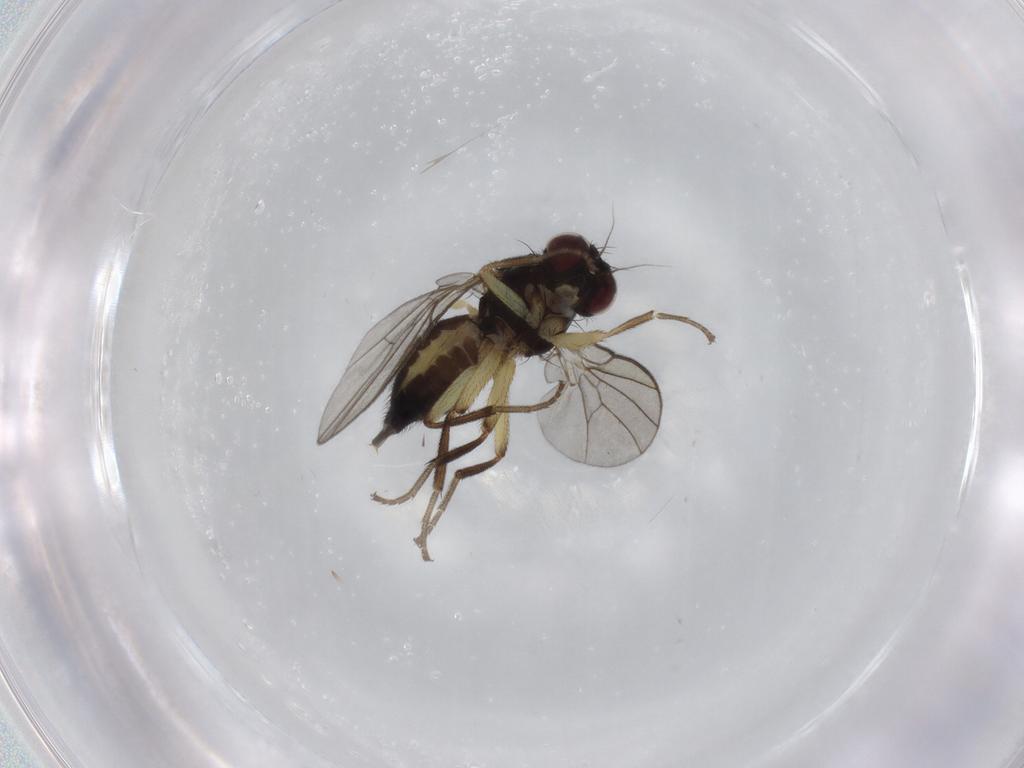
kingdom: Animalia
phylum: Arthropoda
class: Insecta
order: Diptera
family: Agromyzidae
